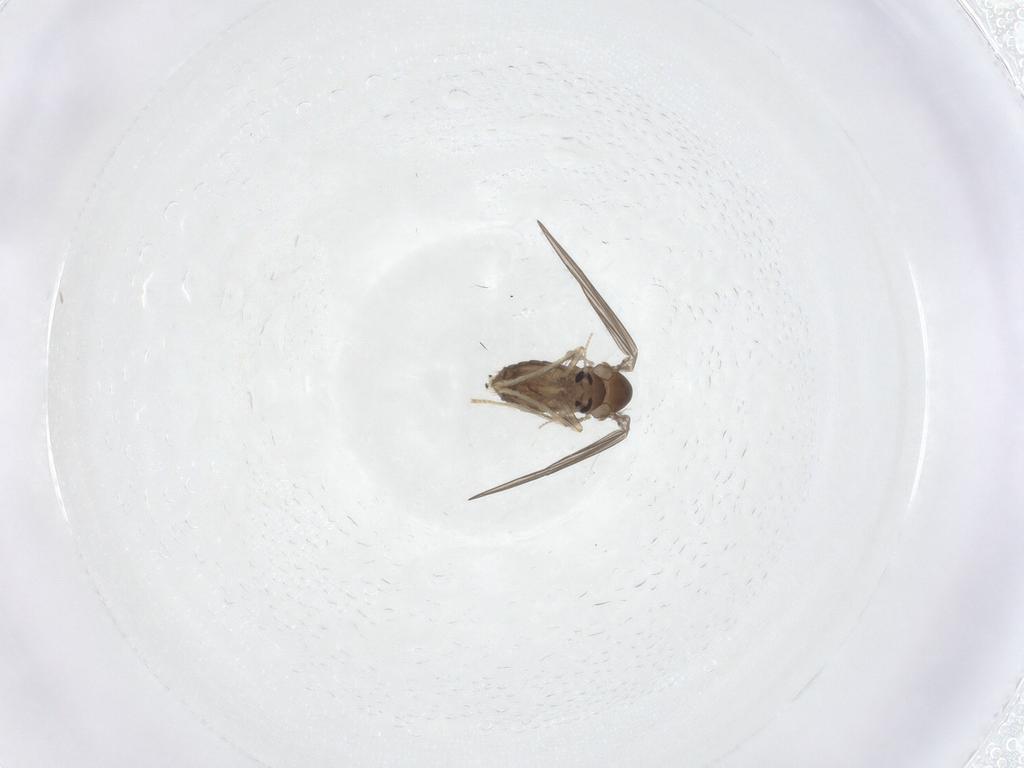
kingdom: Animalia
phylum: Arthropoda
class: Insecta
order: Diptera
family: Psychodidae
